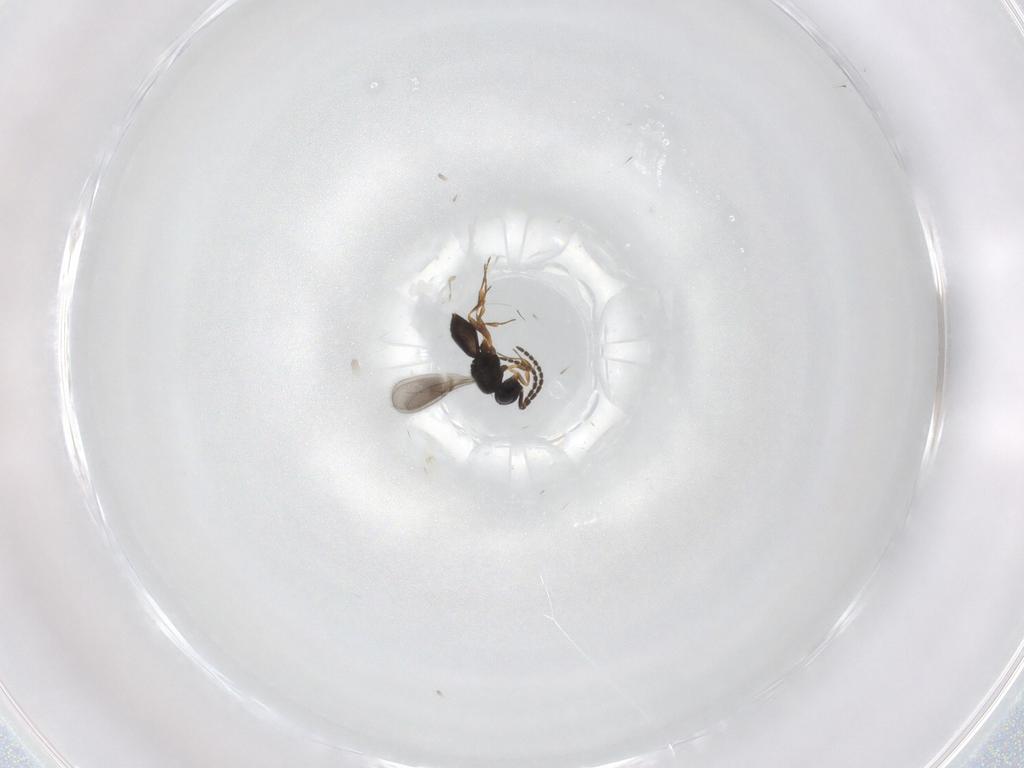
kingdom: Animalia
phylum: Arthropoda
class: Insecta
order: Hymenoptera
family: Scelionidae
